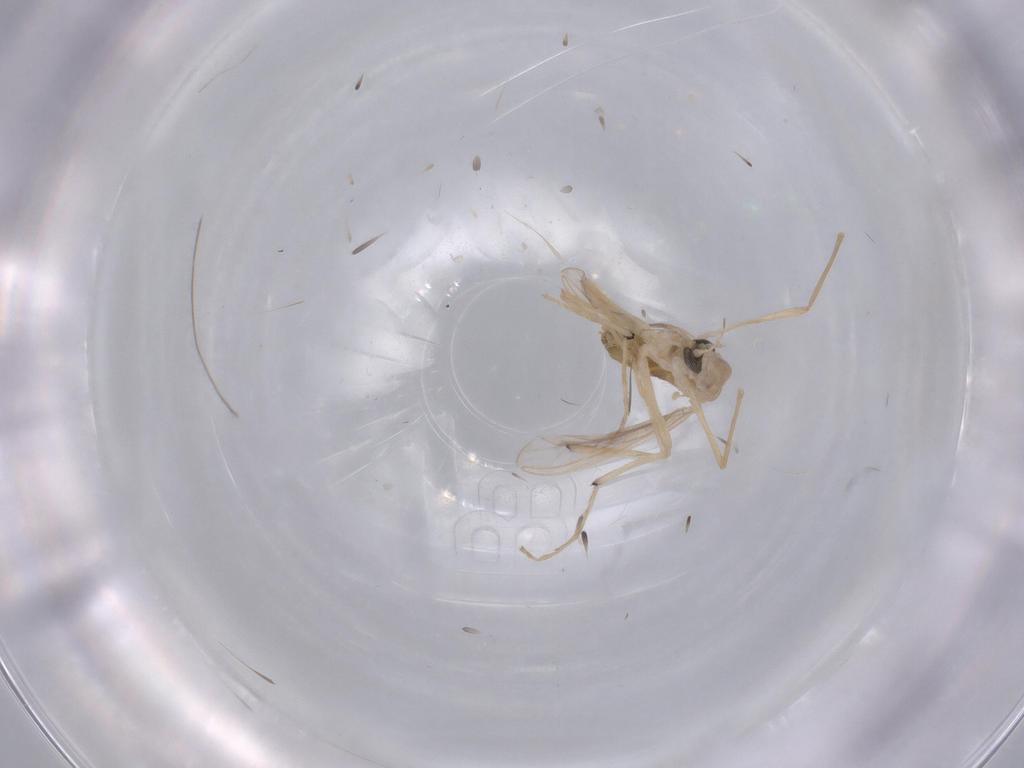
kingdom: Animalia
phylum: Arthropoda
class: Insecta
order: Diptera
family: Chironomidae
